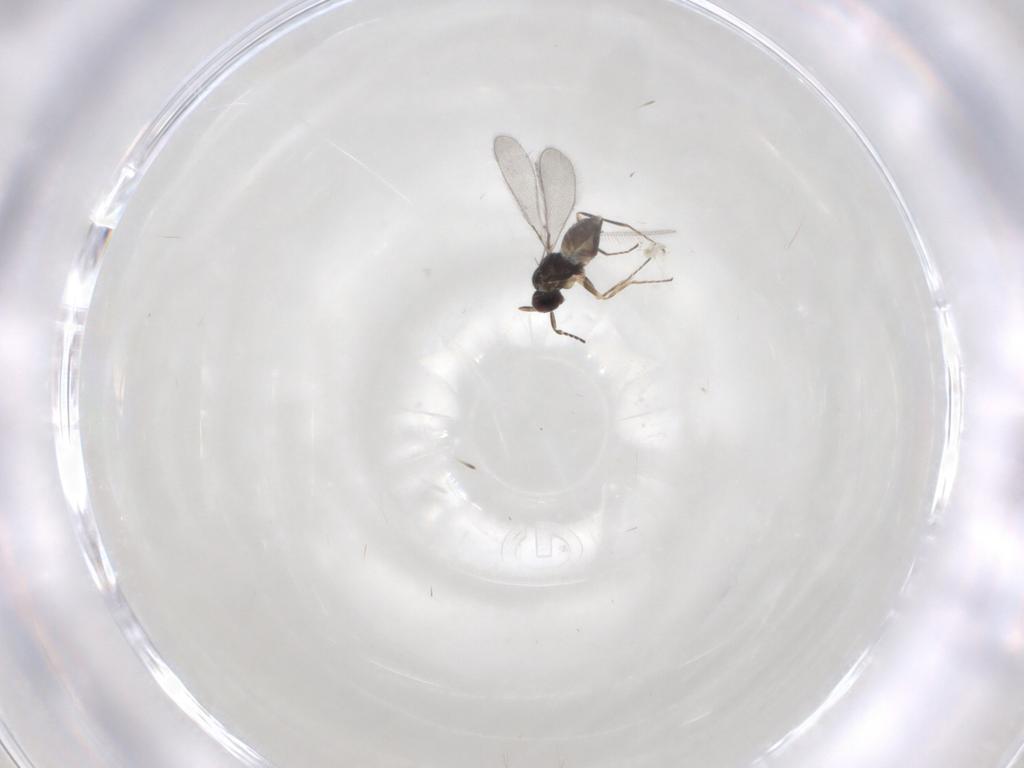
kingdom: Animalia
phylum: Arthropoda
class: Insecta
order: Hymenoptera
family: Mymaridae
